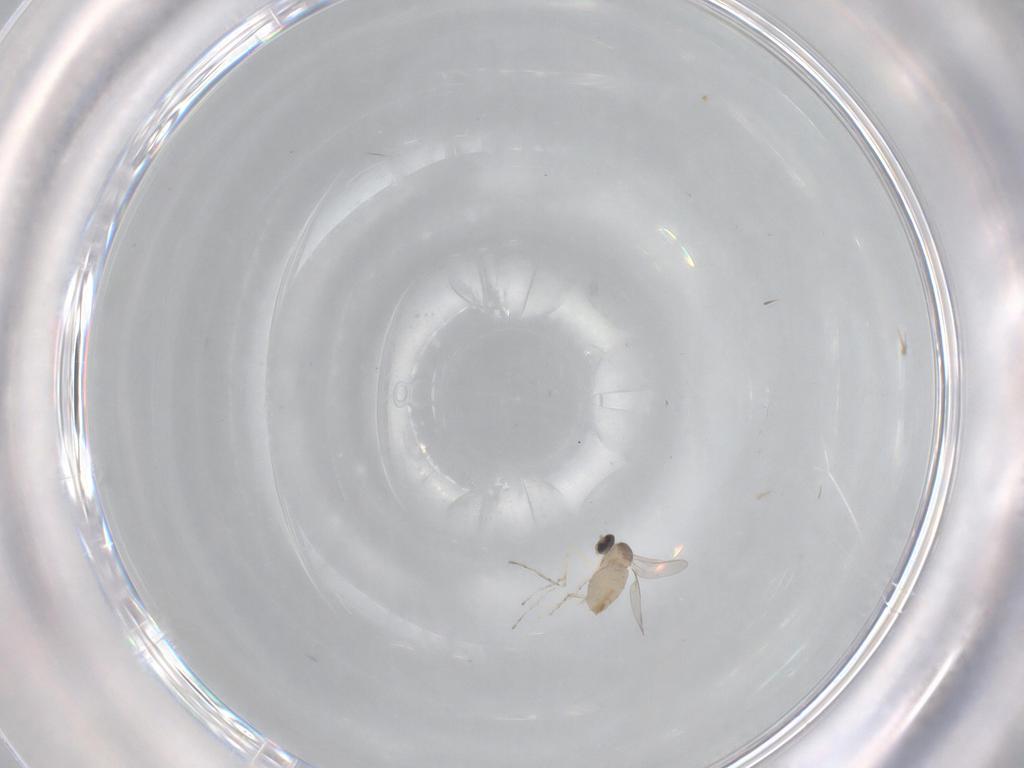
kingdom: Animalia
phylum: Arthropoda
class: Insecta
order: Diptera
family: Cecidomyiidae
